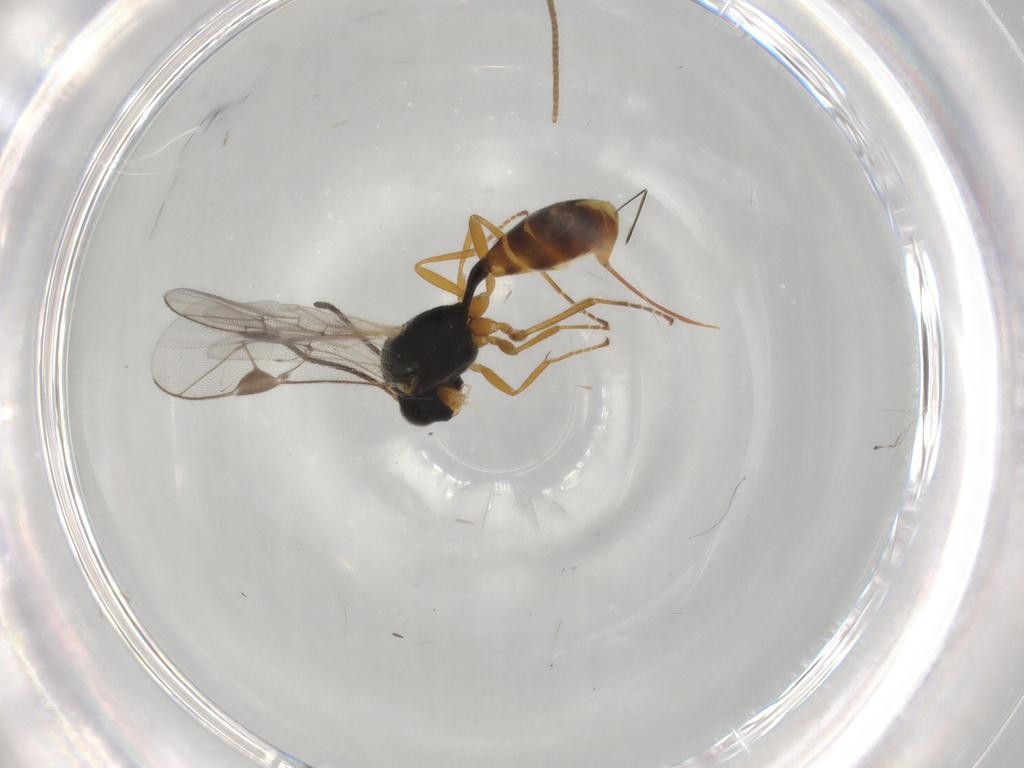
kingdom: Animalia
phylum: Arthropoda
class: Insecta
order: Hymenoptera
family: Ichneumonidae
